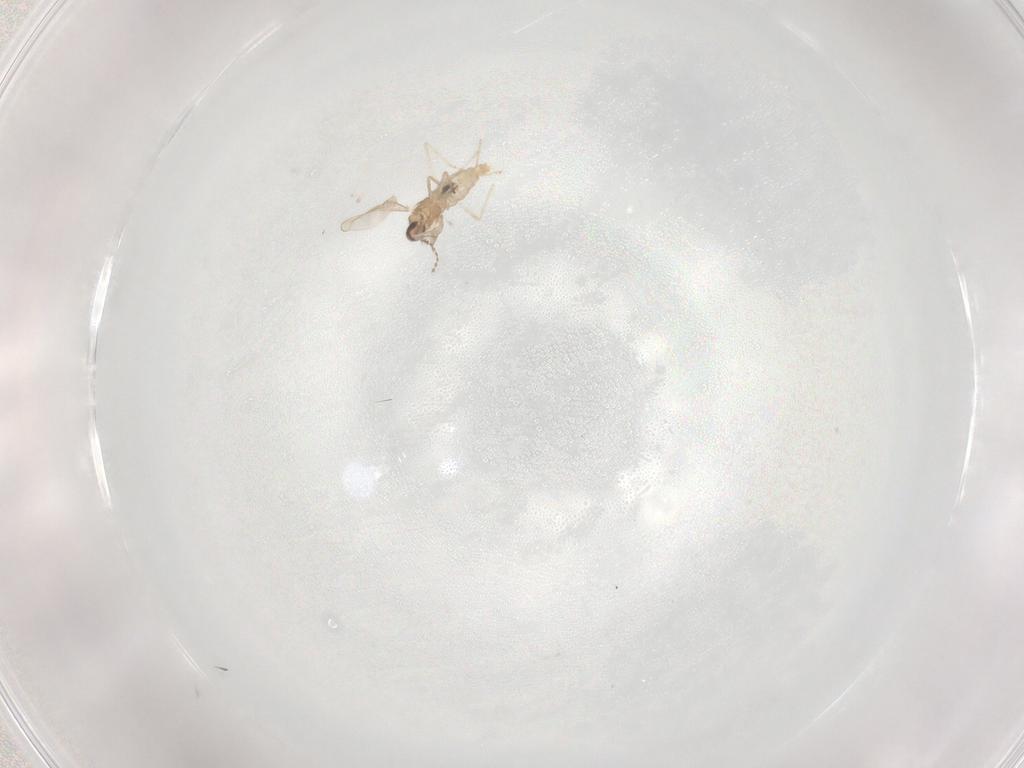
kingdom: Animalia
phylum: Arthropoda
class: Insecta
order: Diptera
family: Cecidomyiidae
